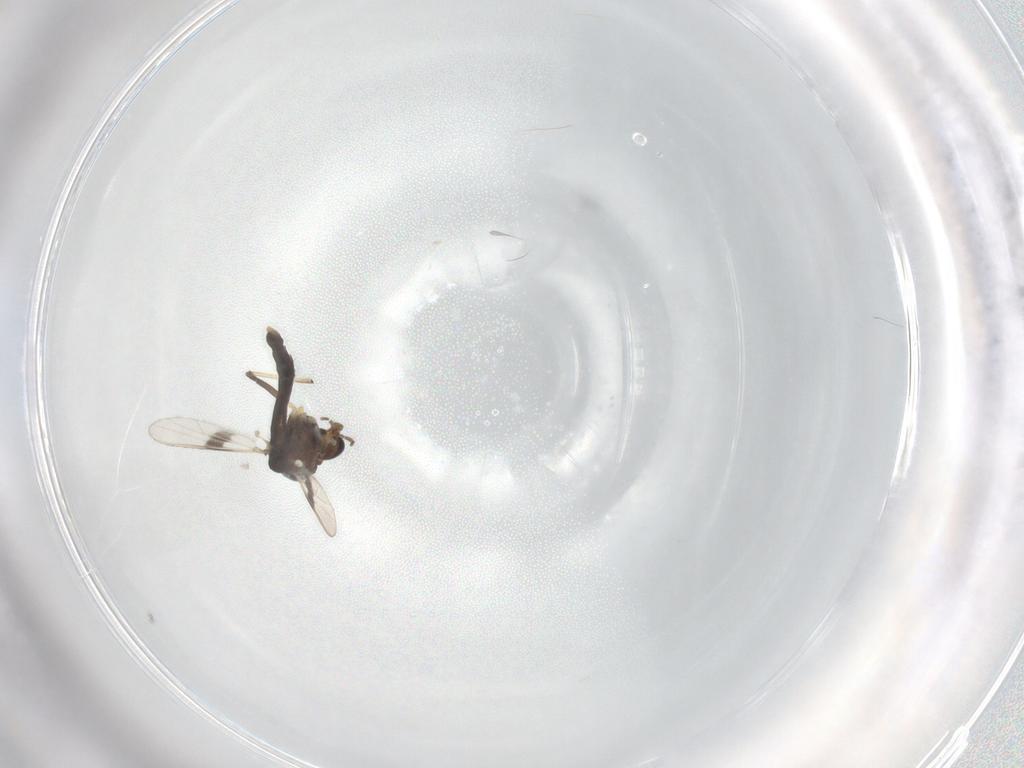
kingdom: Animalia
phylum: Arthropoda
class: Insecta
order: Diptera
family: Chironomidae
